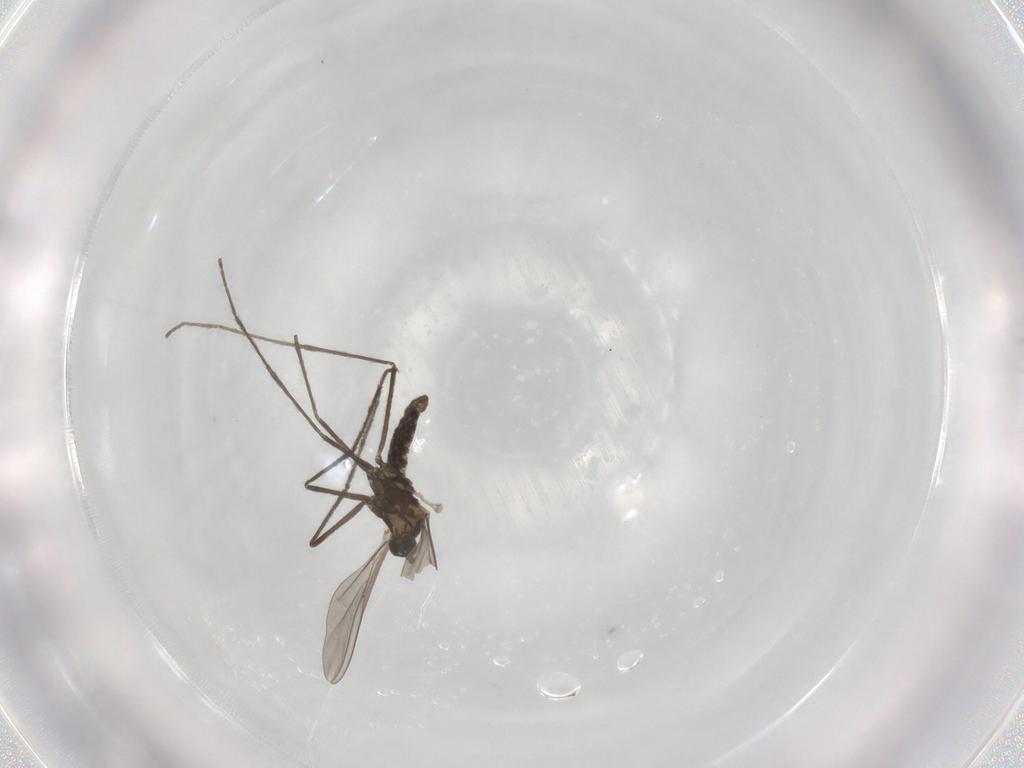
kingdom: Animalia
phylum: Arthropoda
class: Insecta
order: Diptera
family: Cecidomyiidae
